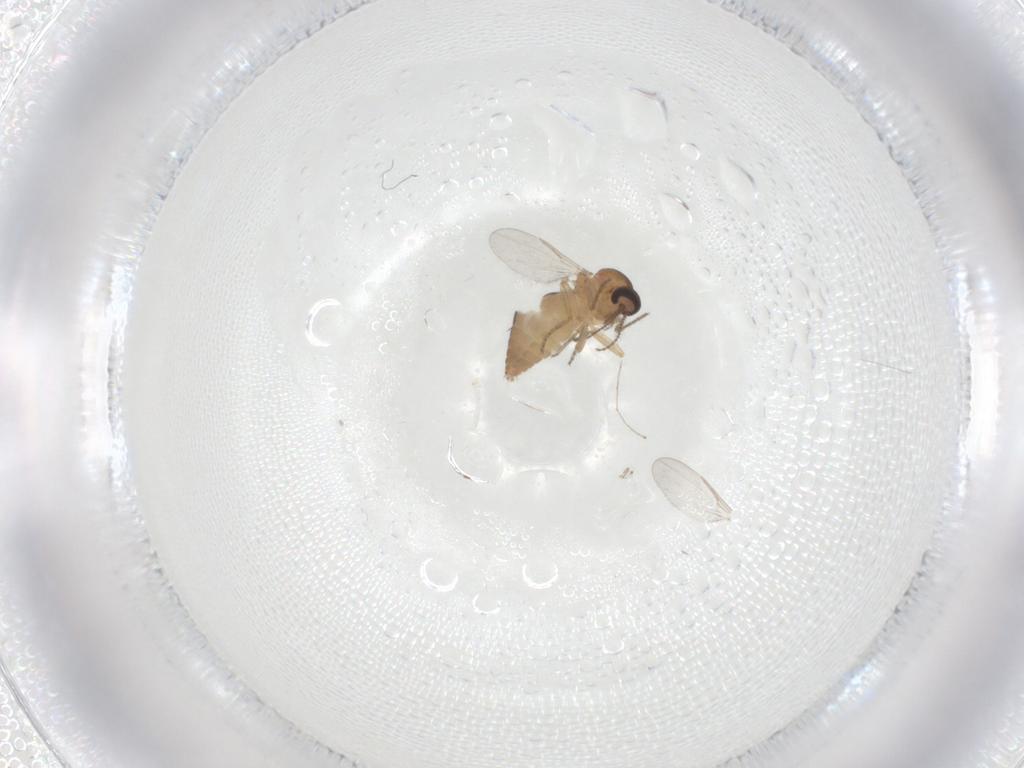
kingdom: Animalia
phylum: Arthropoda
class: Insecta
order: Diptera
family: Ceratopogonidae
